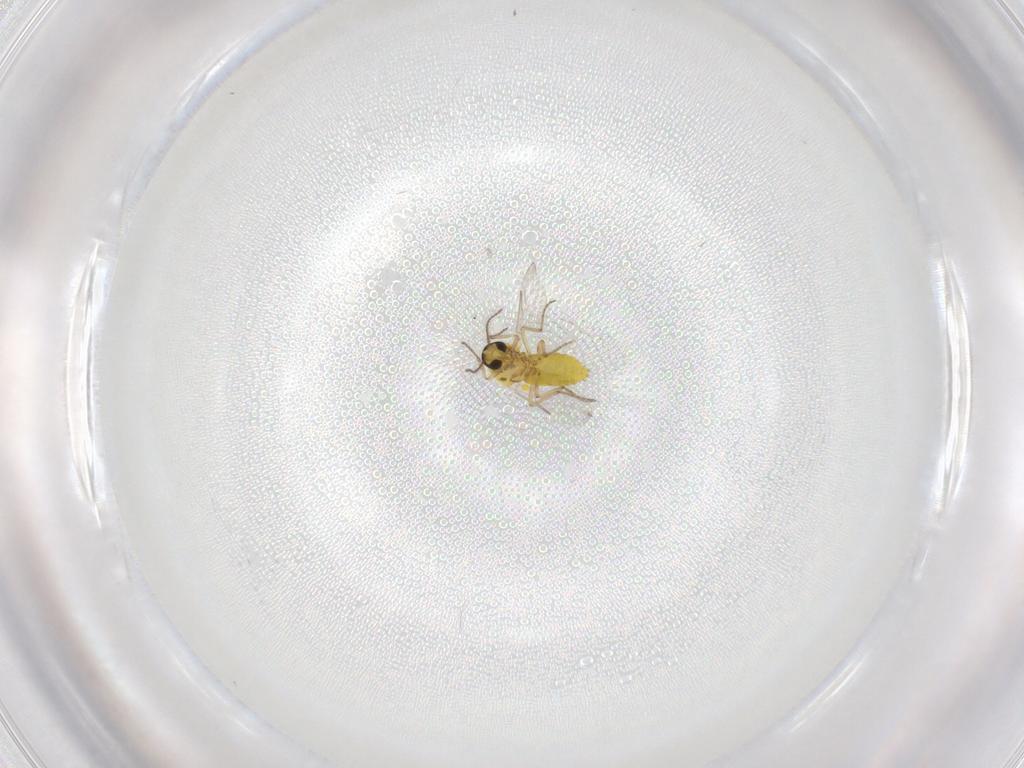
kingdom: Animalia
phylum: Arthropoda
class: Insecta
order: Diptera
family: Ceratopogonidae
